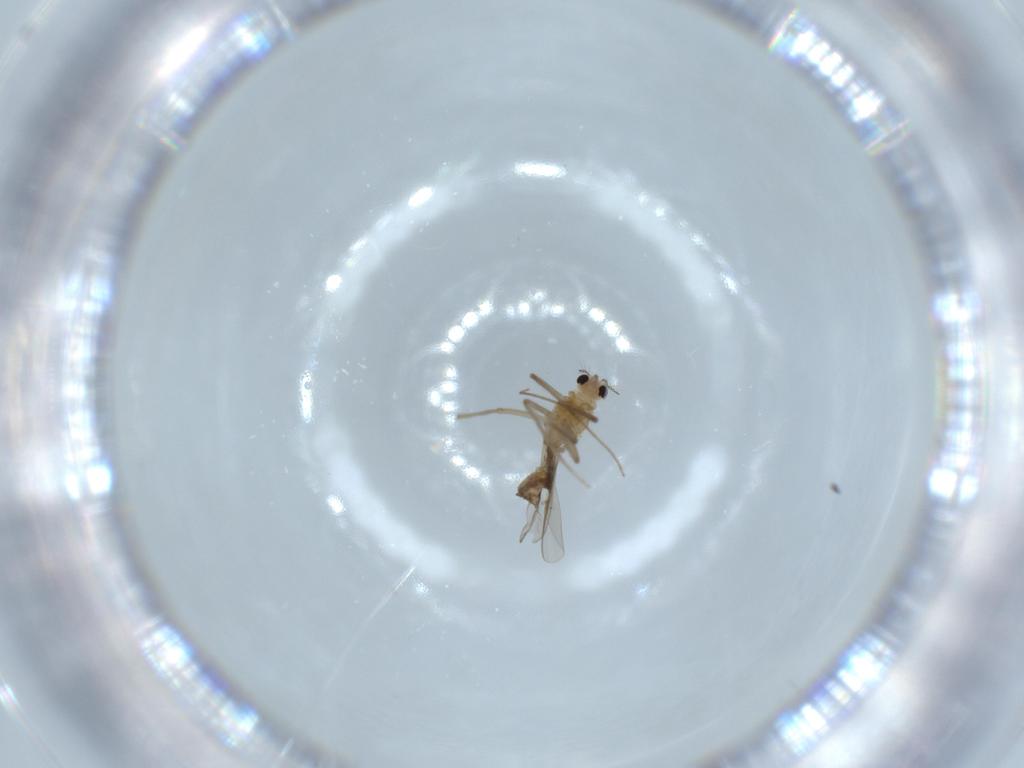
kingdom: Animalia
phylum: Arthropoda
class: Insecta
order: Diptera
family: Chironomidae
